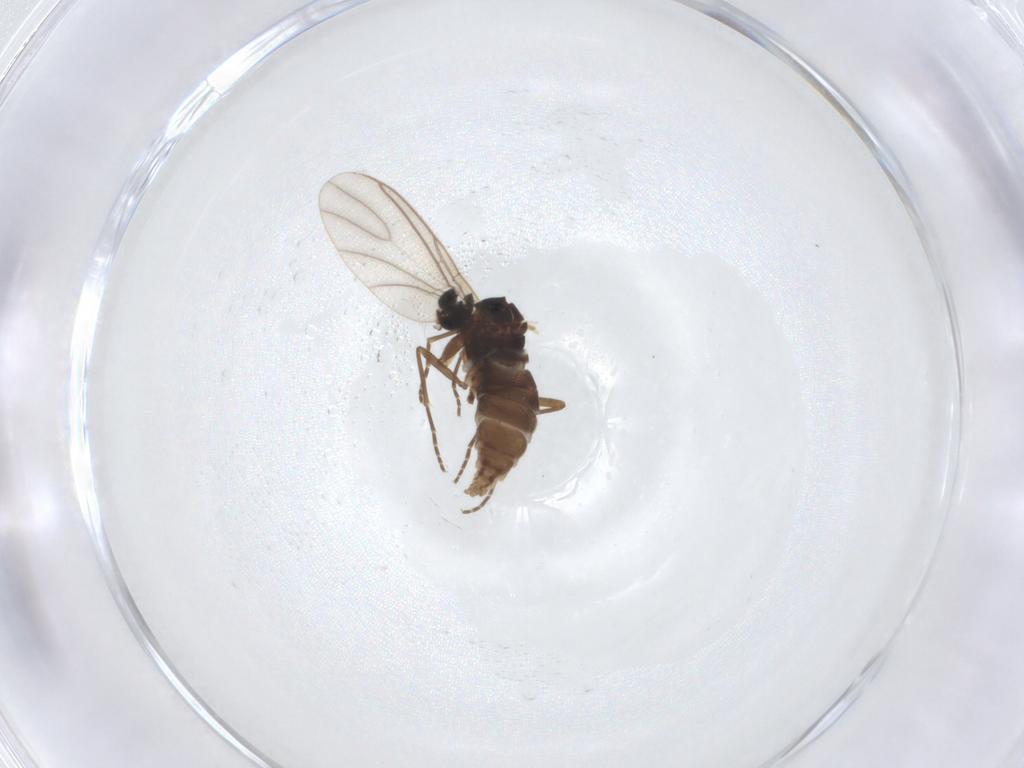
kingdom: Animalia
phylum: Arthropoda
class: Insecta
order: Diptera
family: Sciaridae
